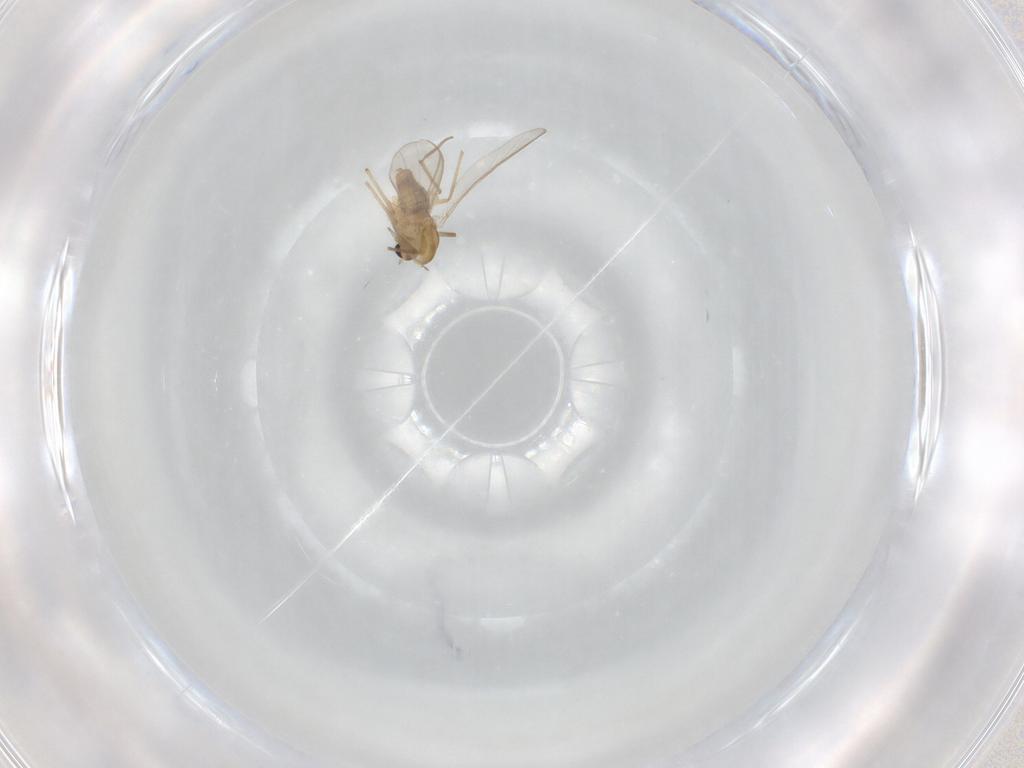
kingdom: Animalia
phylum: Arthropoda
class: Insecta
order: Diptera
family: Chironomidae
